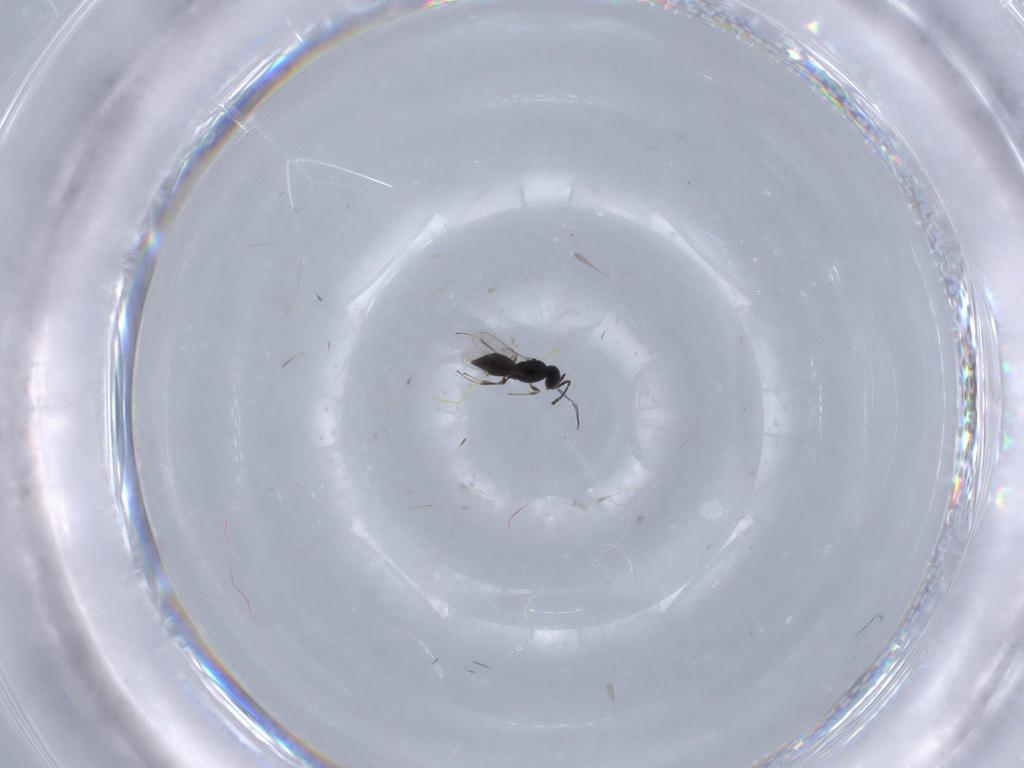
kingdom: Animalia
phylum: Arthropoda
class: Insecta
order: Hymenoptera
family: Scelionidae
